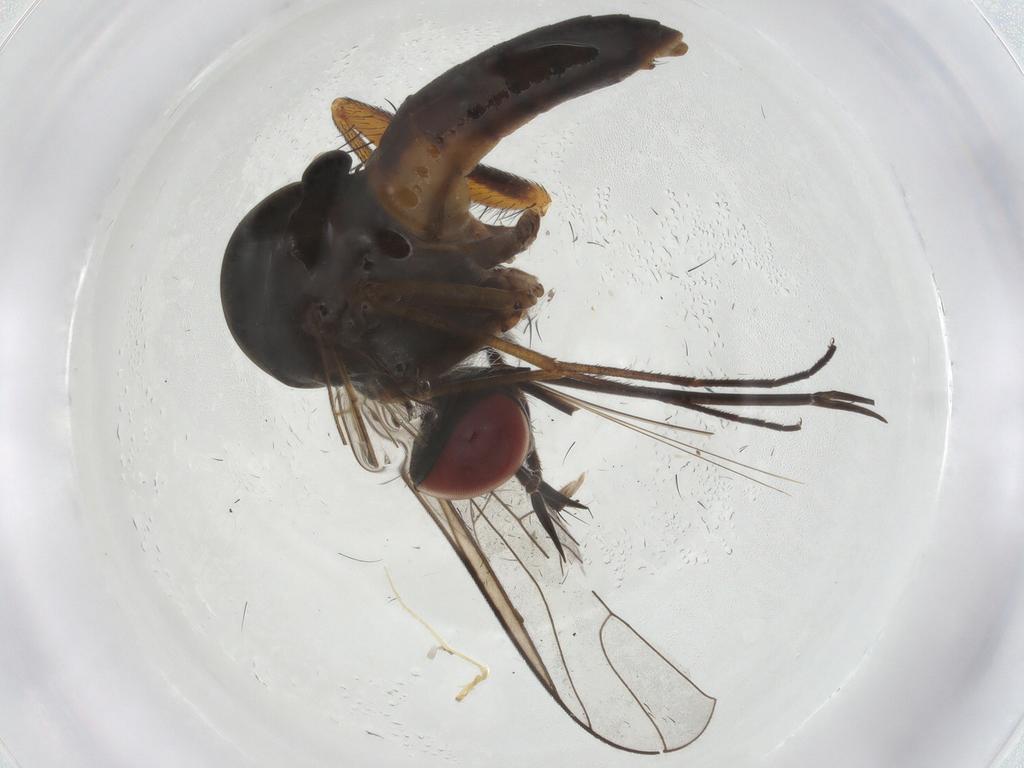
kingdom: Animalia
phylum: Arthropoda
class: Insecta
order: Diptera
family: Bombyliidae
